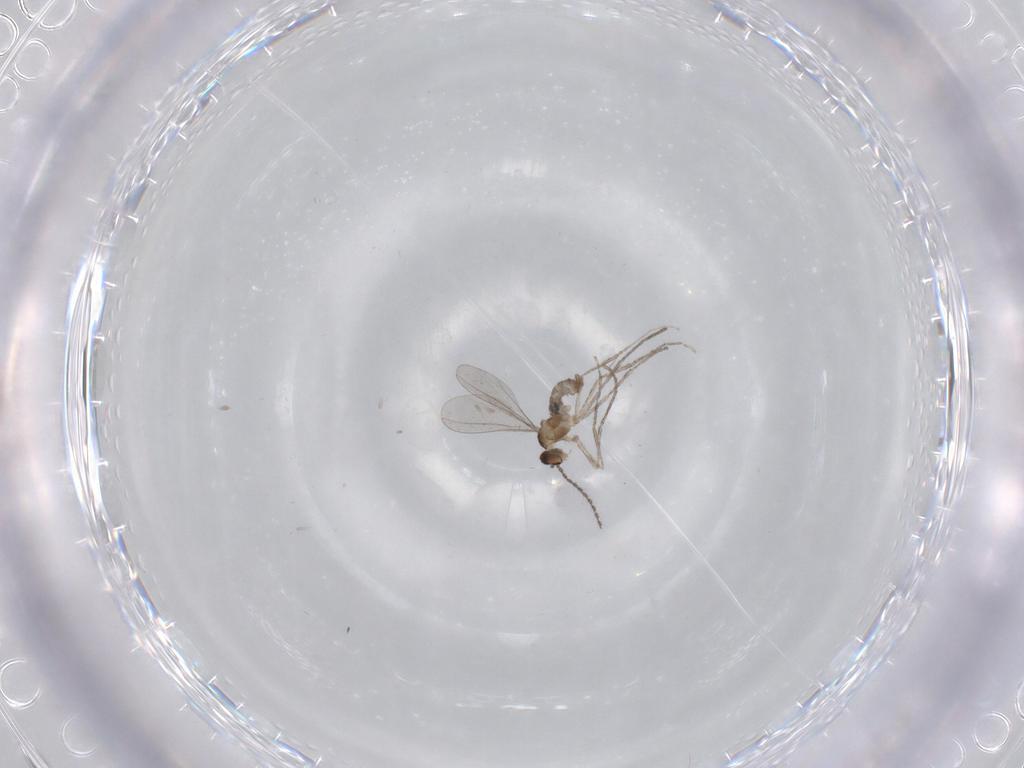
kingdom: Animalia
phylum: Arthropoda
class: Insecta
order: Diptera
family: Chironomidae
